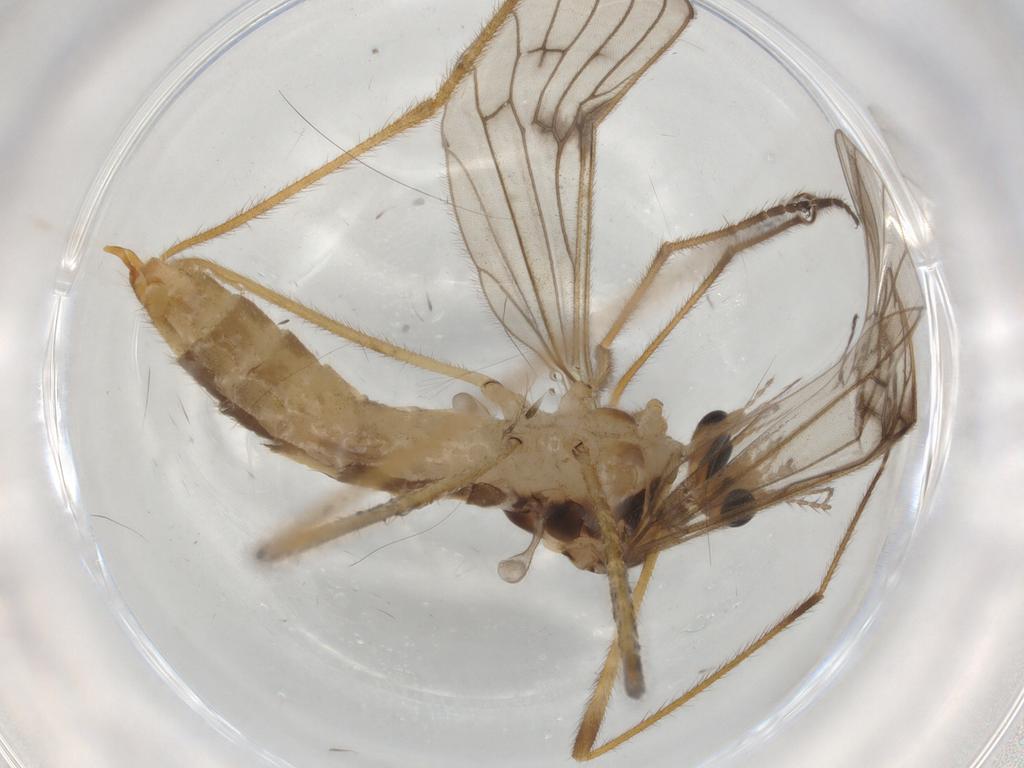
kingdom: Animalia
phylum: Arthropoda
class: Insecta
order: Diptera
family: Limoniidae
